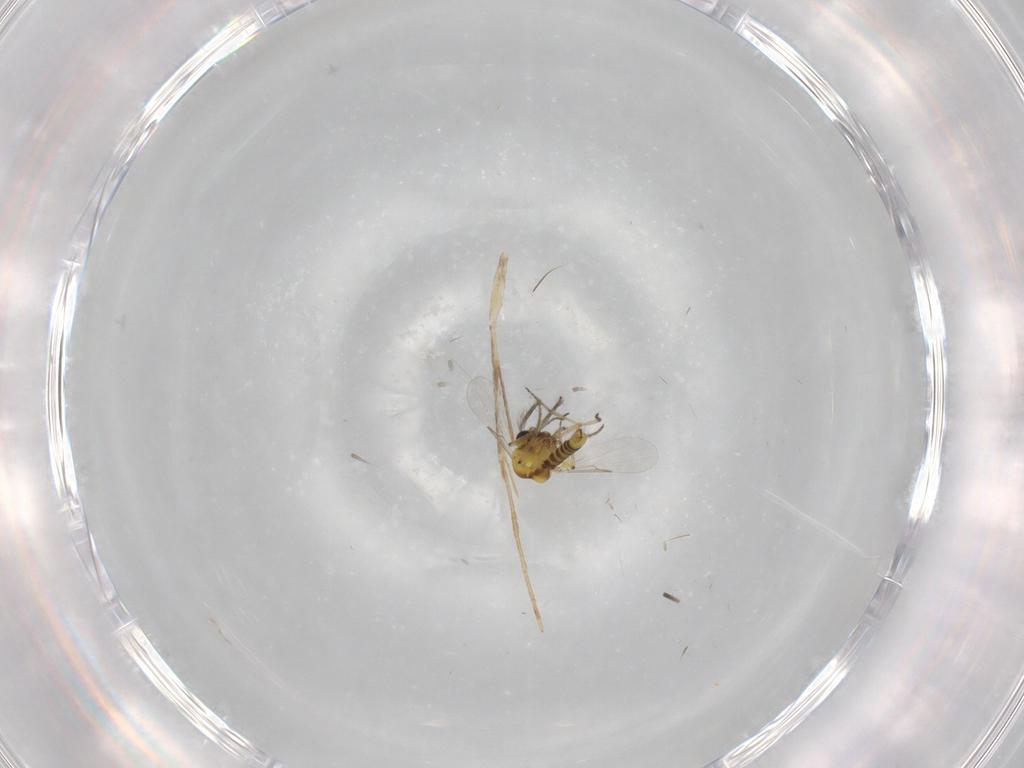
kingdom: Animalia
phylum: Arthropoda
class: Insecta
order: Diptera
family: Ceratopogonidae
